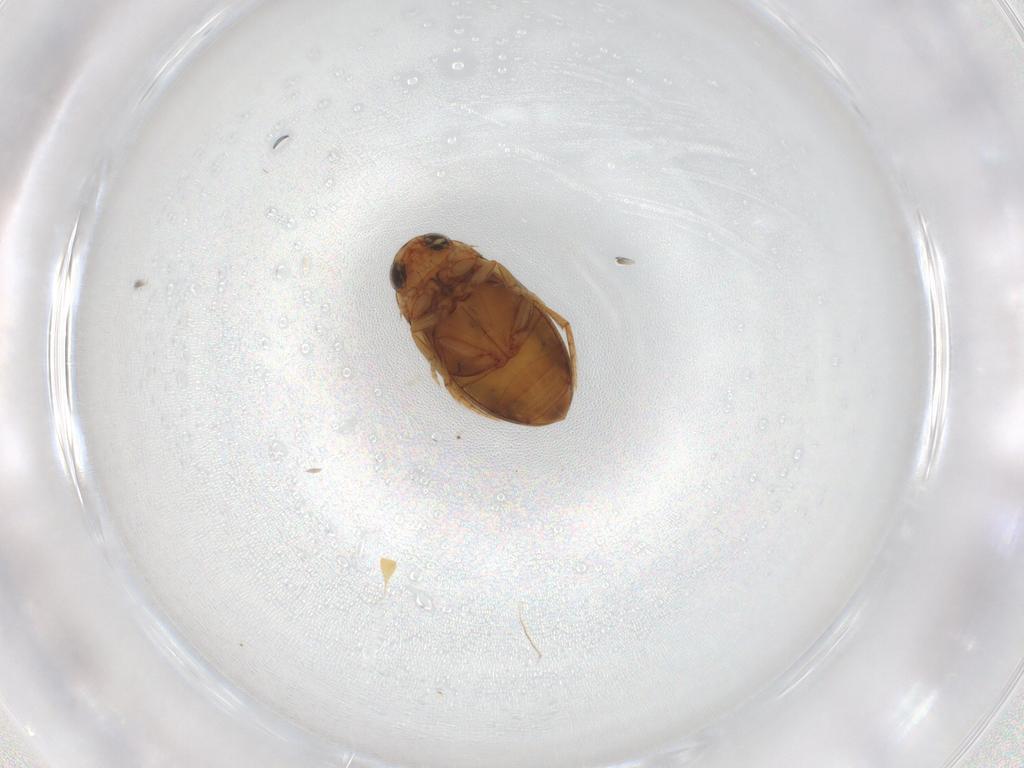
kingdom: Animalia
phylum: Arthropoda
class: Insecta
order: Coleoptera
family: Dytiscidae
